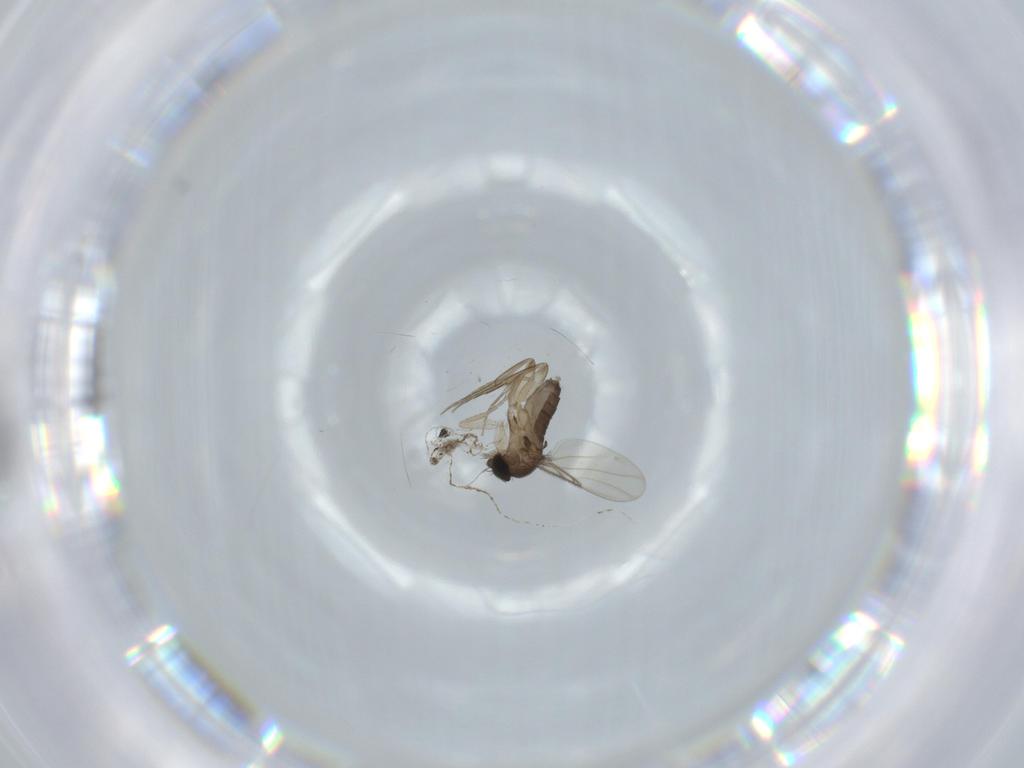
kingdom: Animalia
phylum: Arthropoda
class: Insecta
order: Diptera
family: Phoridae
